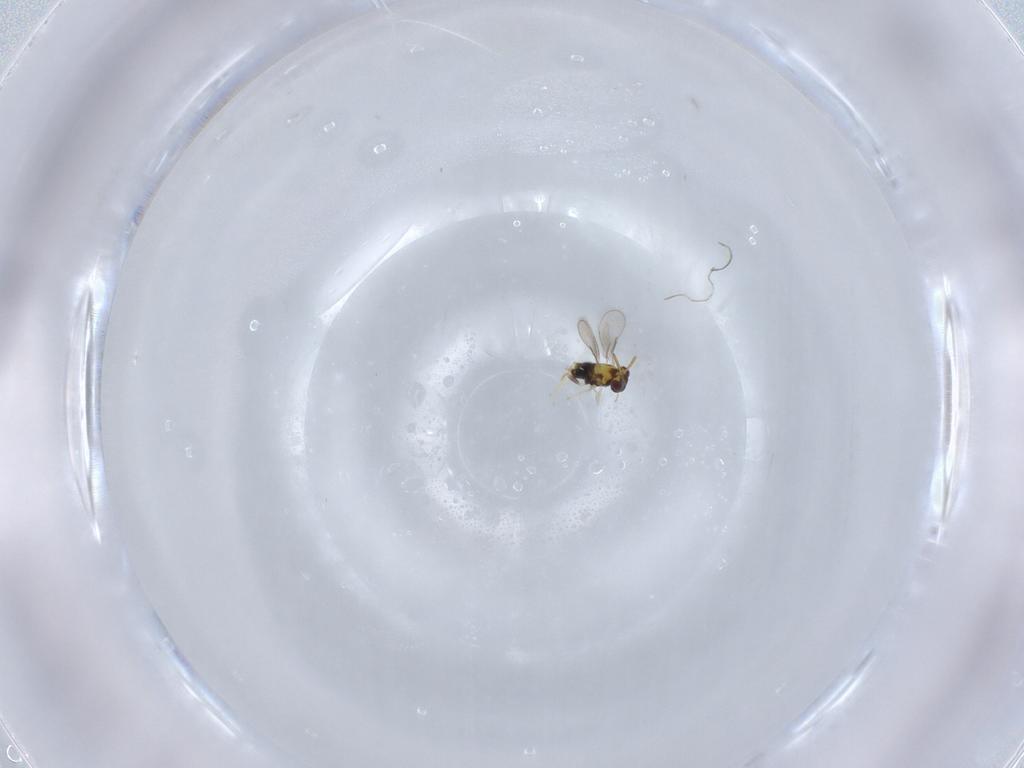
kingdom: Animalia
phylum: Arthropoda
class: Insecta
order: Hymenoptera
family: Aphelinidae
